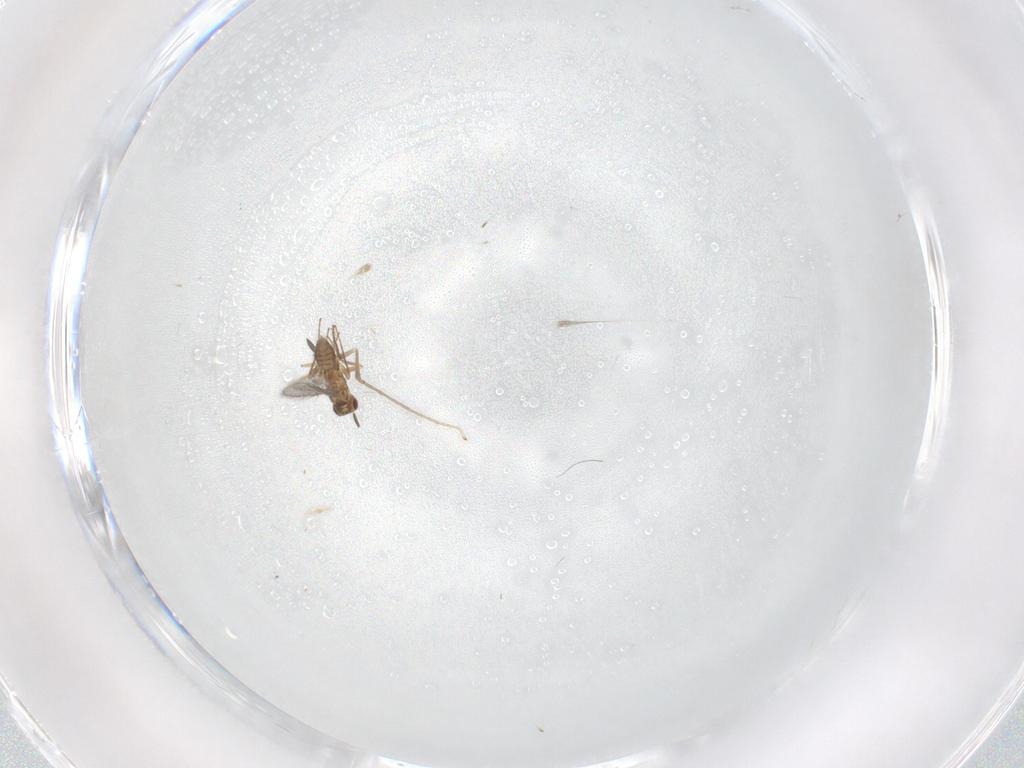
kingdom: Animalia
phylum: Arthropoda
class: Insecta
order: Hymenoptera
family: Mymaridae
